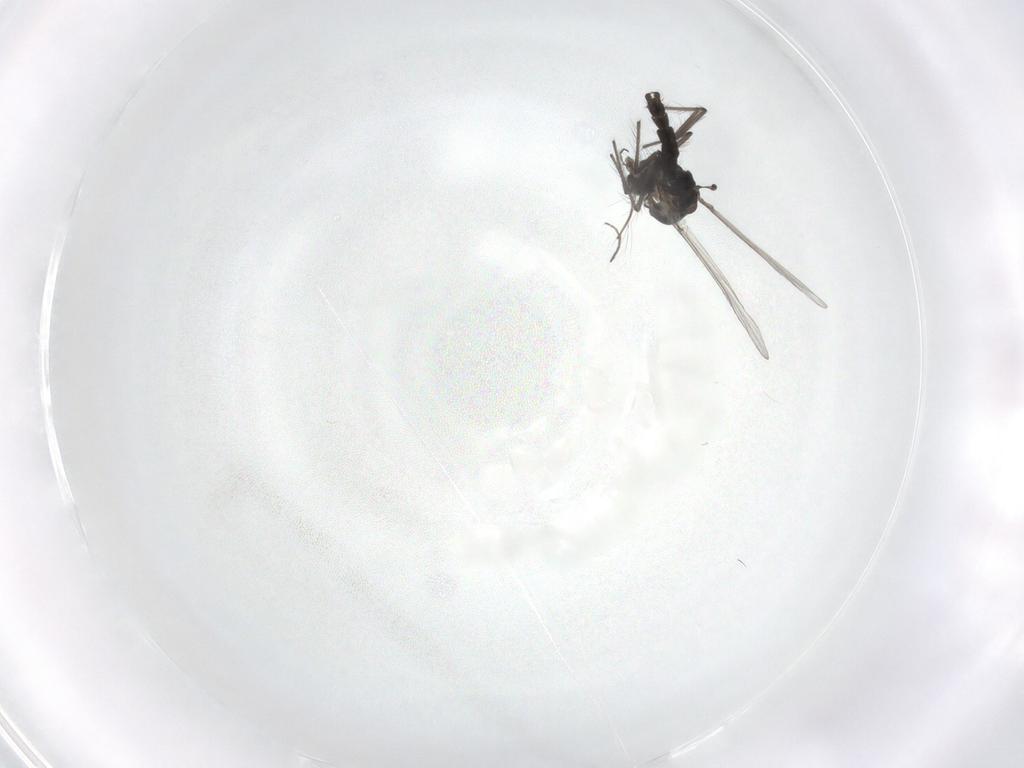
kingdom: Animalia
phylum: Arthropoda
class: Insecta
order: Diptera
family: Chironomidae
